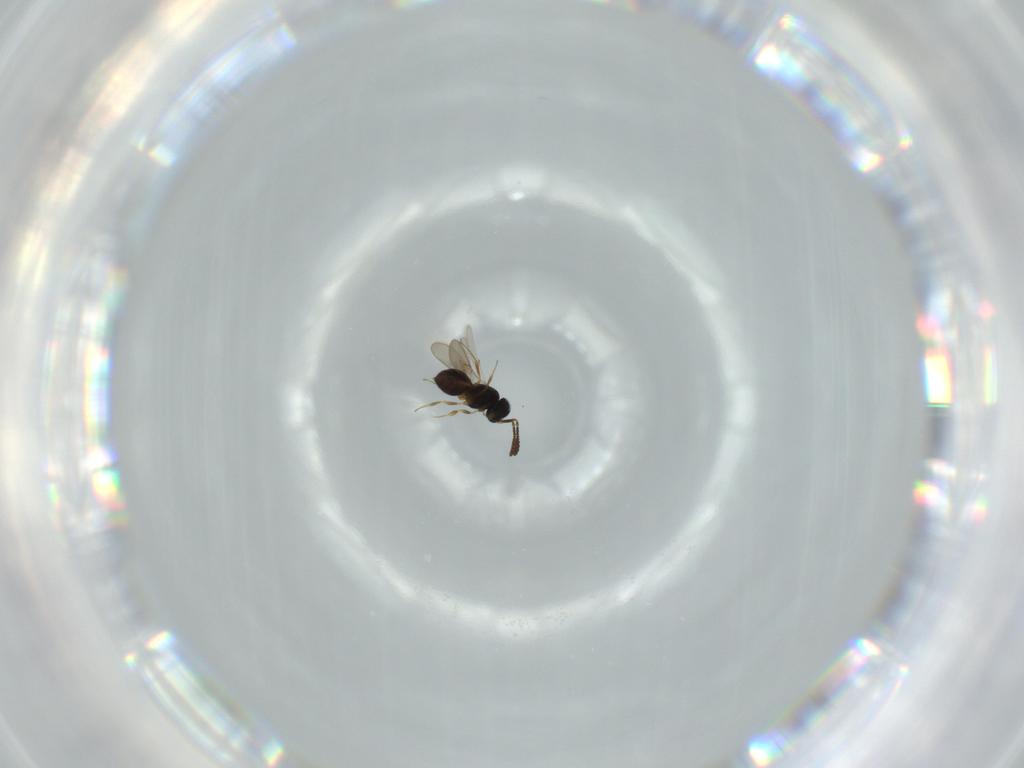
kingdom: Animalia
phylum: Arthropoda
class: Insecta
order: Hymenoptera
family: Scelionidae
